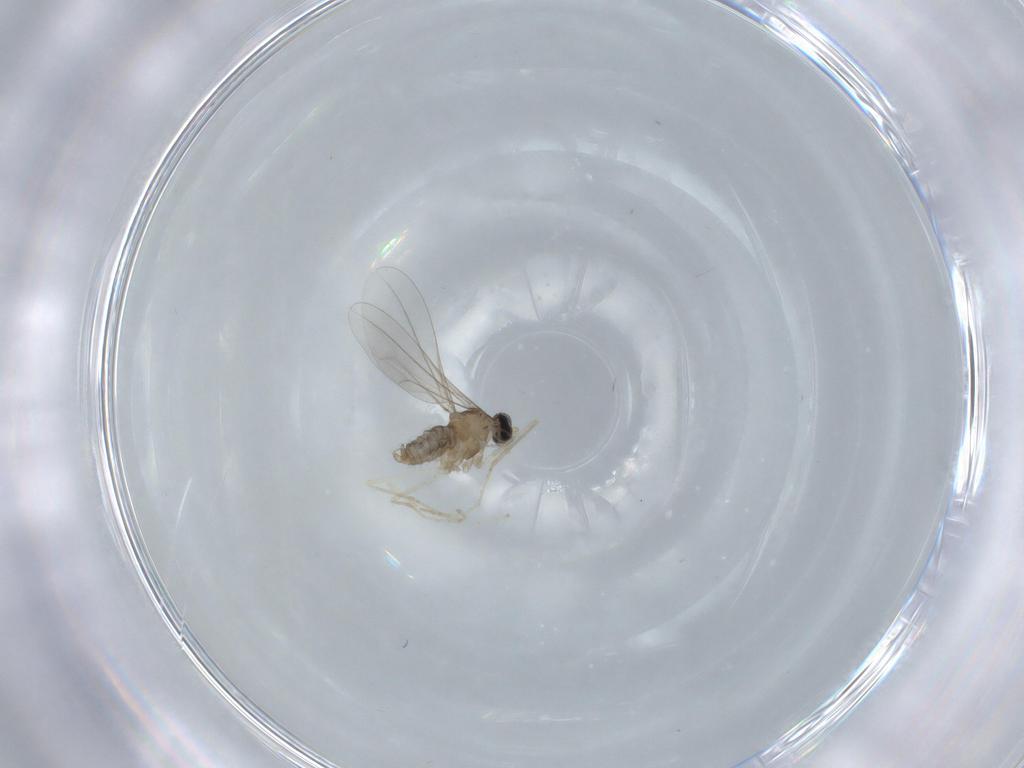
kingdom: Animalia
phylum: Arthropoda
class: Insecta
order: Diptera
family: Cecidomyiidae
